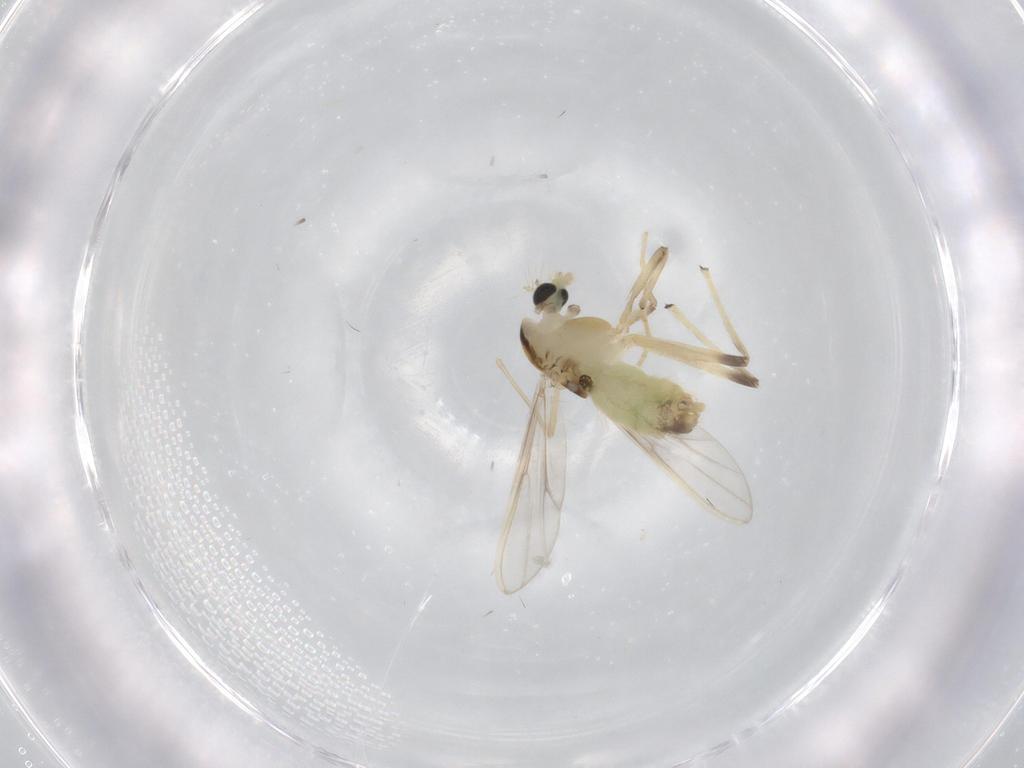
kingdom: Animalia
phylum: Arthropoda
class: Insecta
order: Diptera
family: Chironomidae
